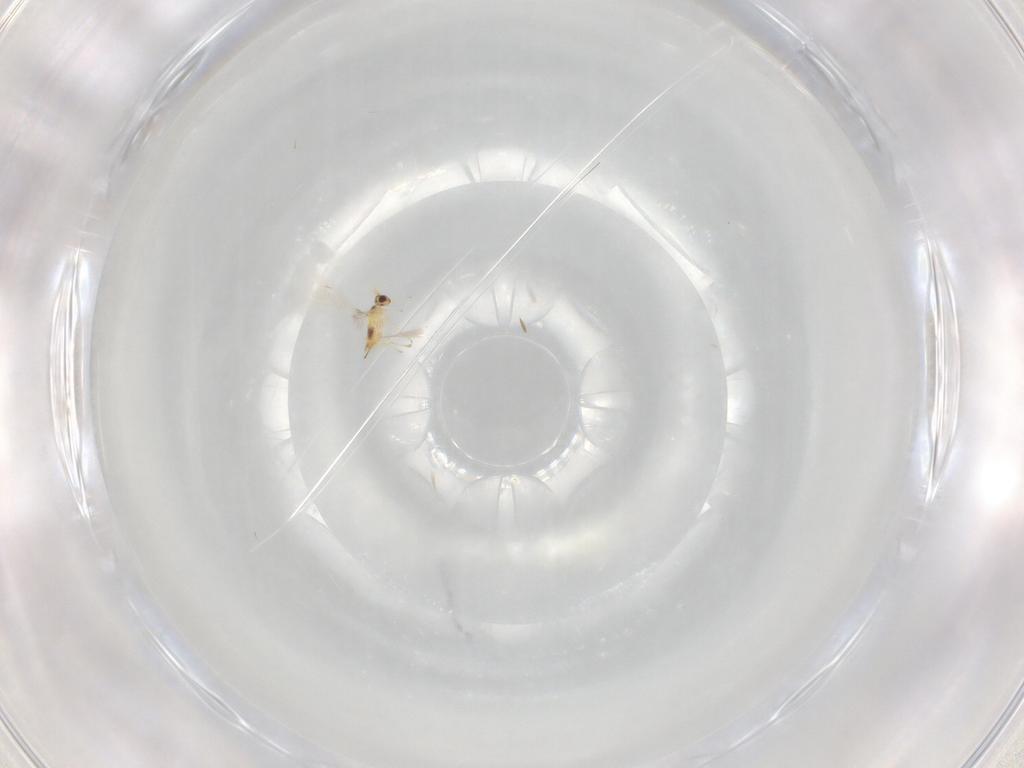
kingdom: Animalia
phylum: Arthropoda
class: Insecta
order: Hymenoptera
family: Mymaridae
